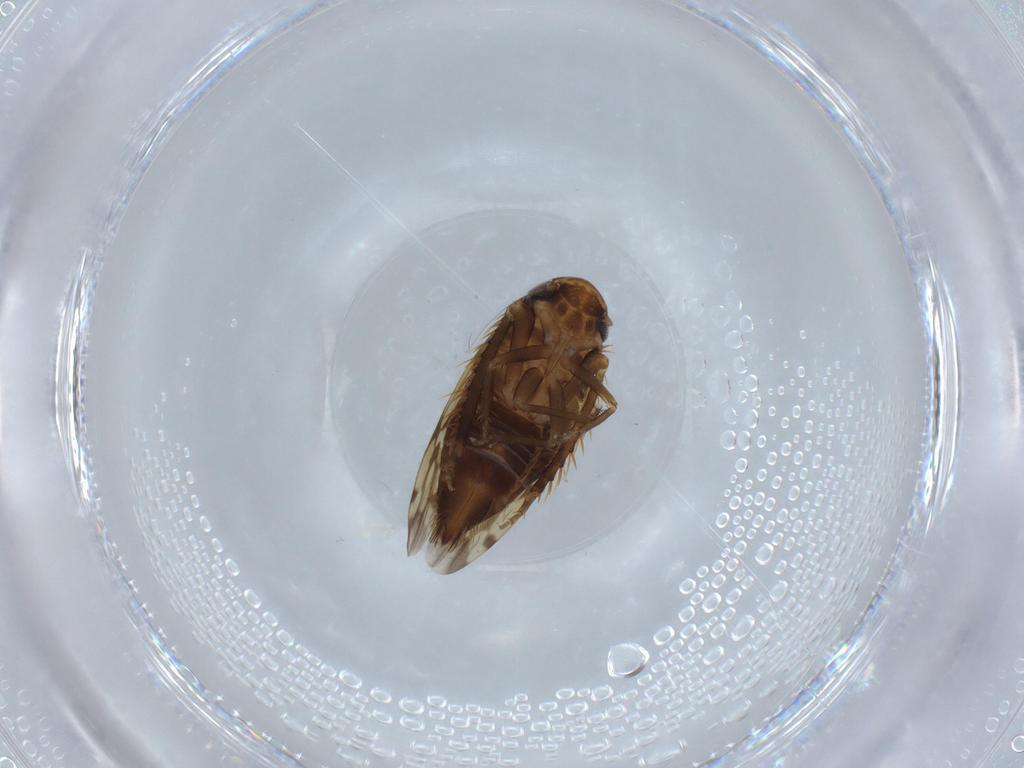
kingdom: Animalia
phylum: Arthropoda
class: Insecta
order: Hemiptera
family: Cicadellidae
